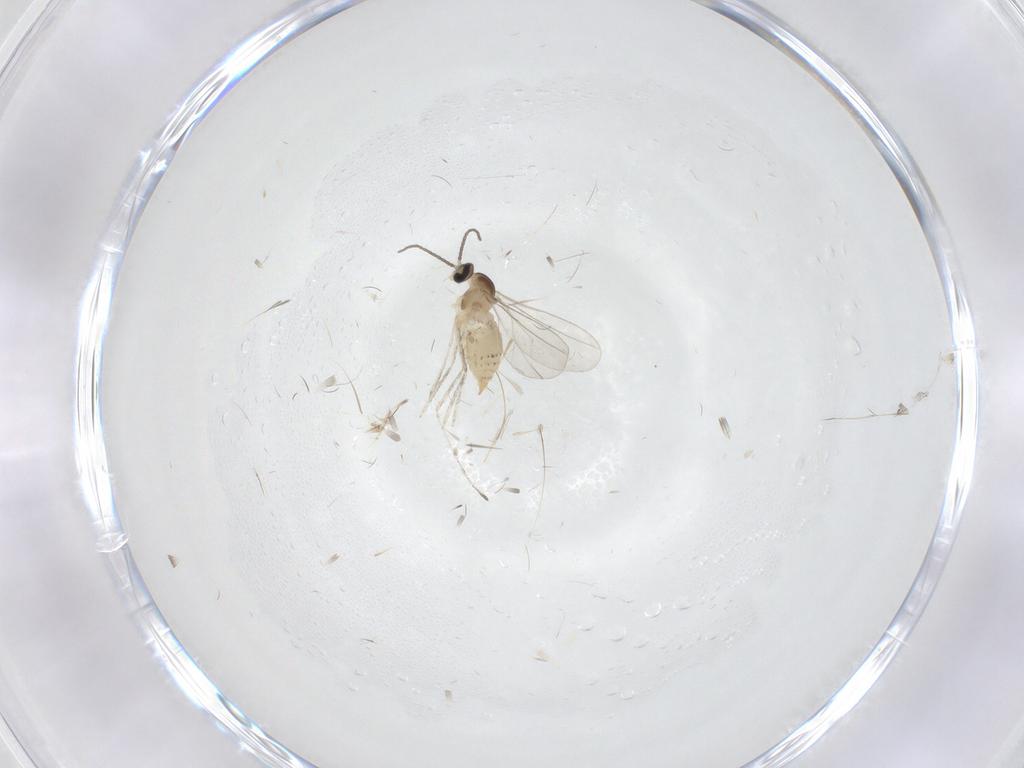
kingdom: Animalia
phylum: Arthropoda
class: Insecta
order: Diptera
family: Cecidomyiidae
